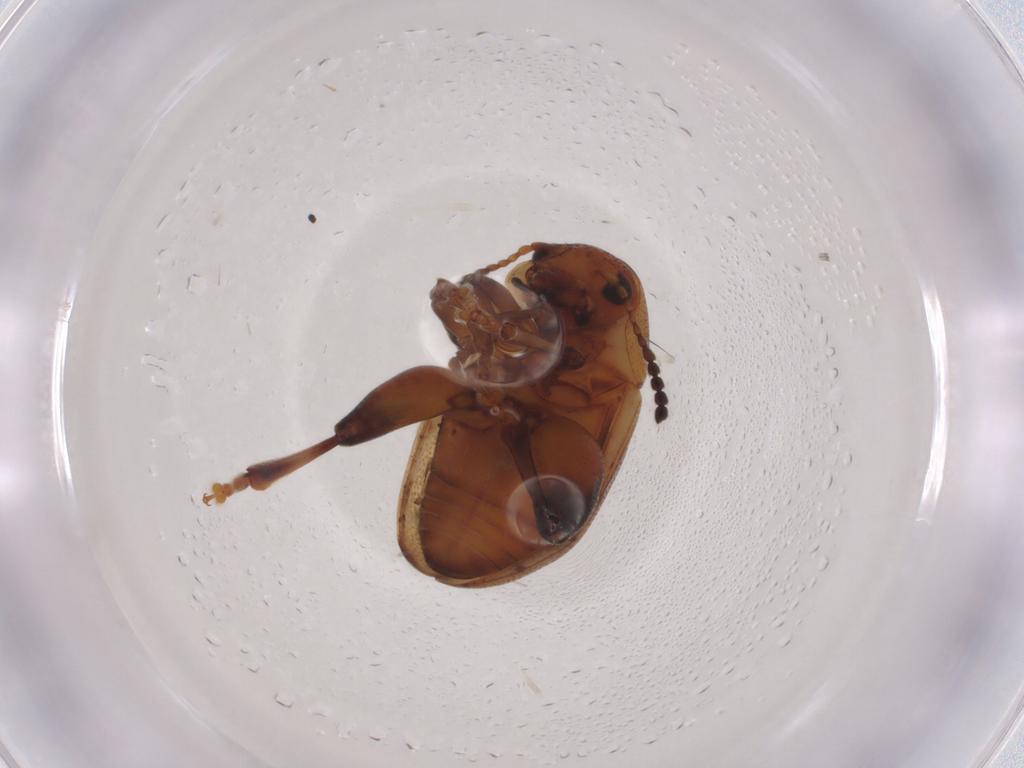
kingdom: Animalia
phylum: Arthropoda
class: Insecta
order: Coleoptera
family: Chrysomelidae
